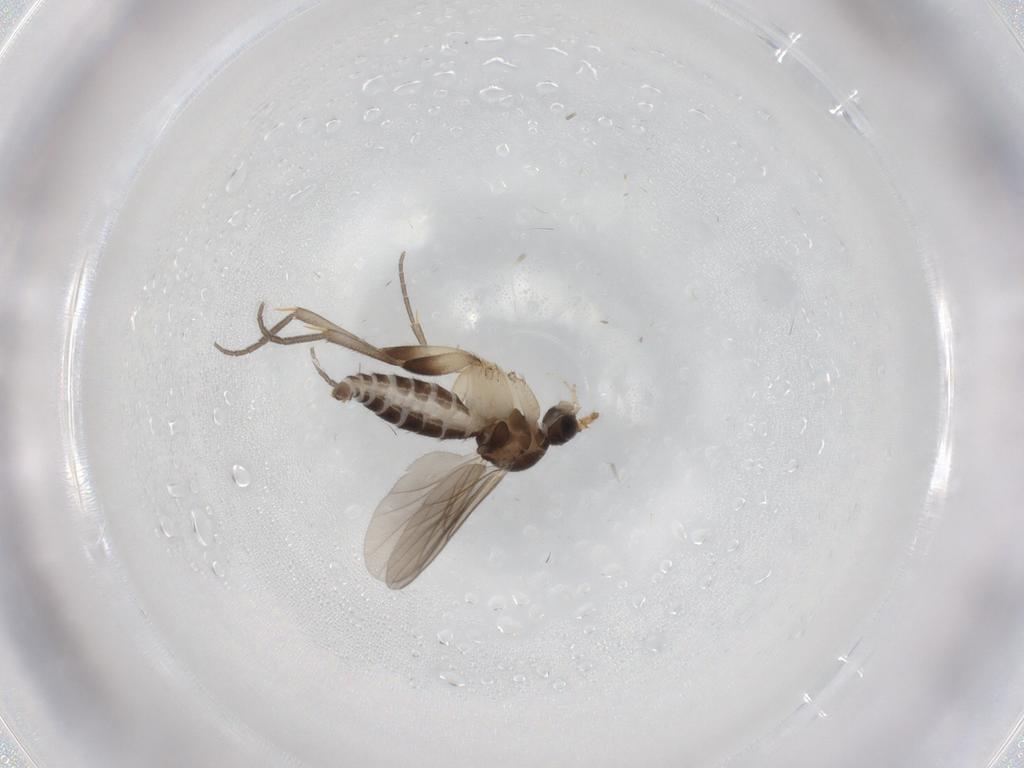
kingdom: Animalia
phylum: Arthropoda
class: Insecta
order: Diptera
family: Mycetophilidae
